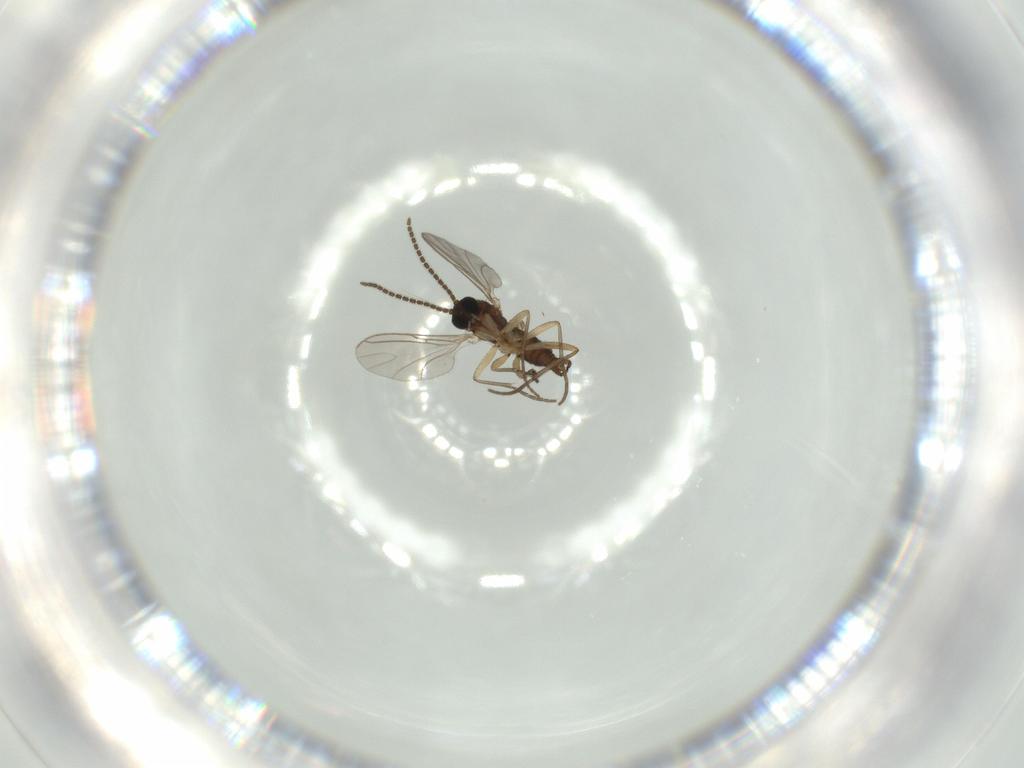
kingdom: Animalia
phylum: Arthropoda
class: Insecta
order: Diptera
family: Sciaridae
